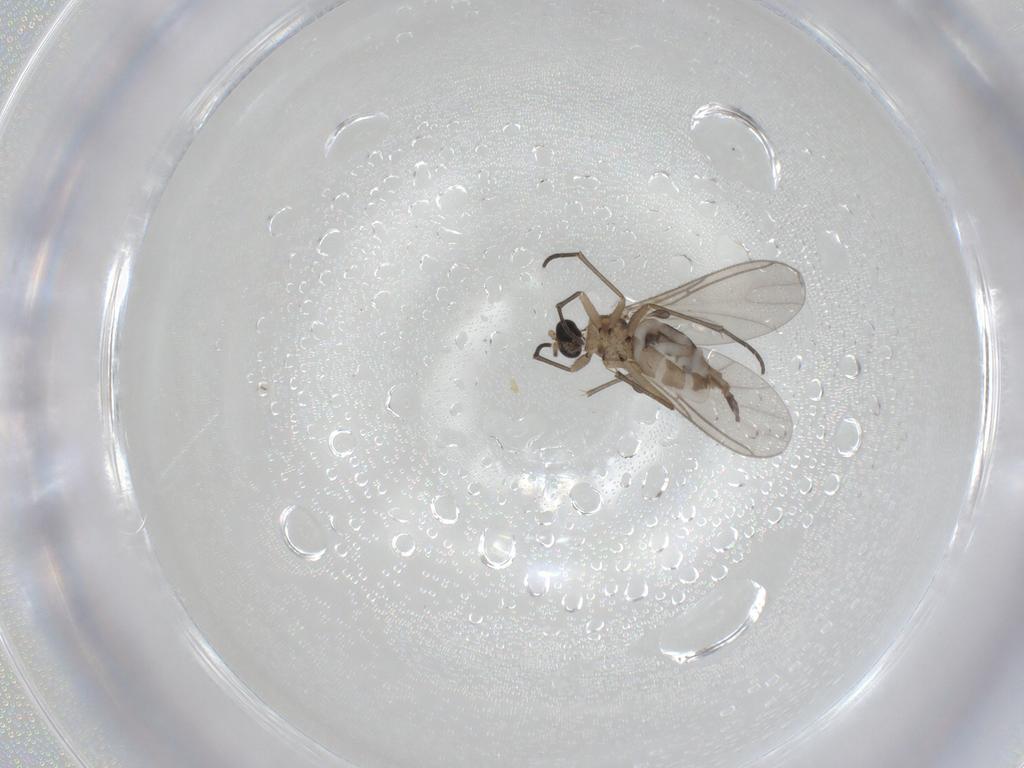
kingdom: Animalia
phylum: Arthropoda
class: Insecta
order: Diptera
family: Sciaridae
